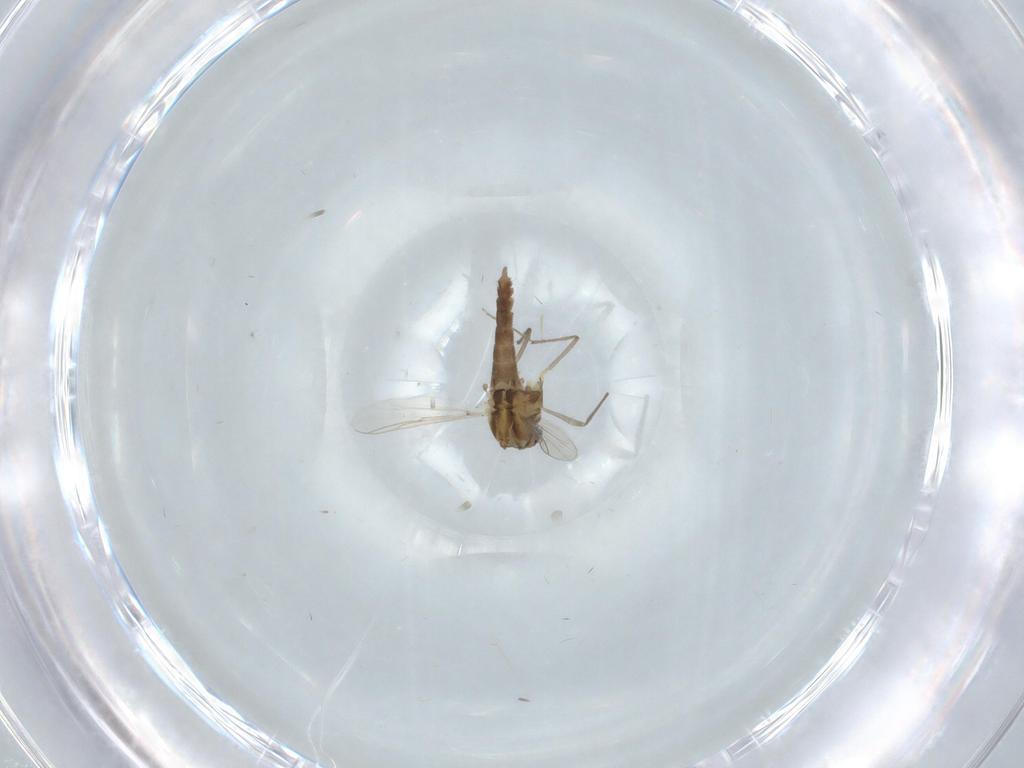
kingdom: Animalia
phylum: Arthropoda
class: Insecta
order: Diptera
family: Chironomidae
